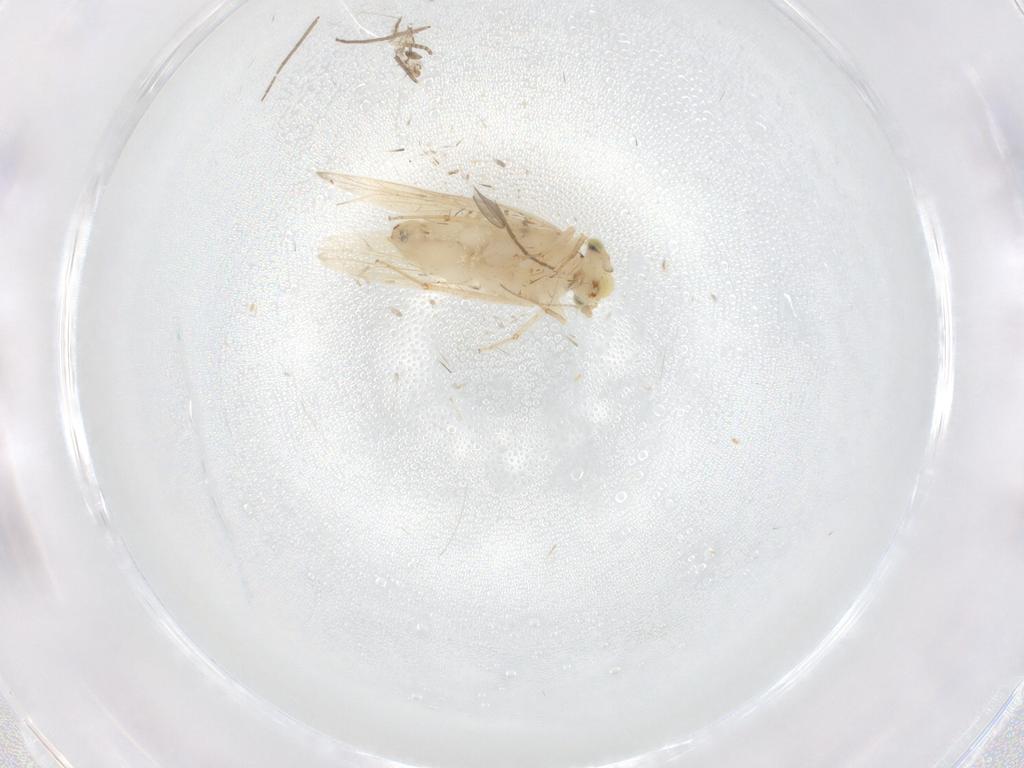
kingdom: Animalia
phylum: Arthropoda
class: Insecta
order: Psocodea
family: Lepidopsocidae
